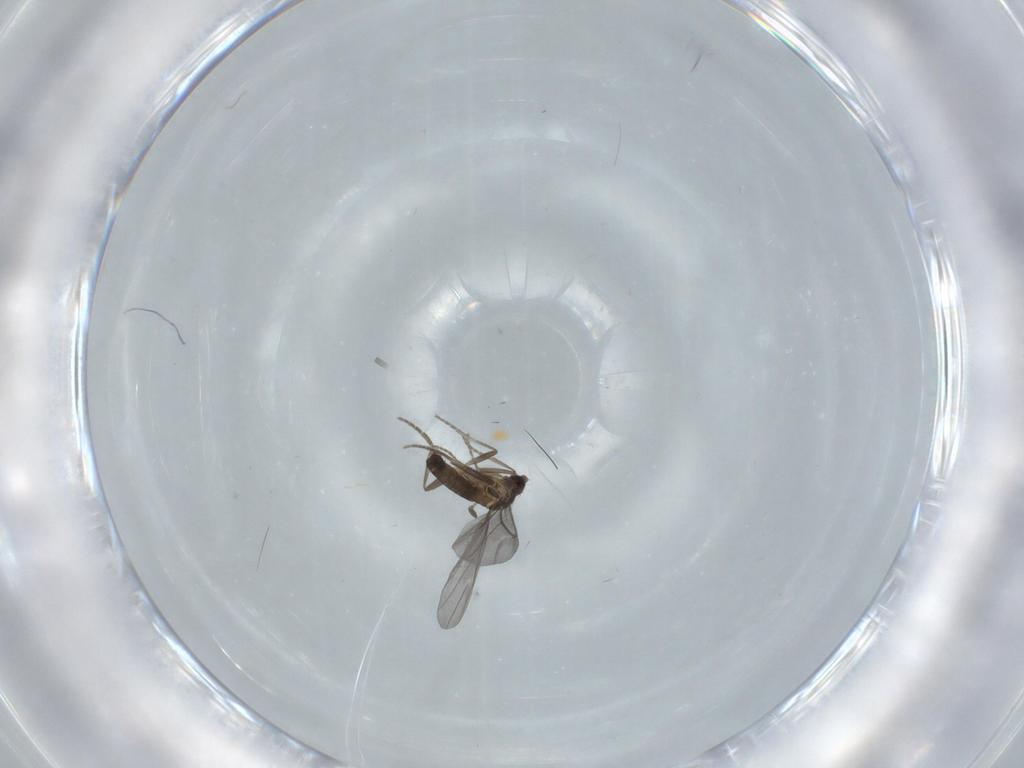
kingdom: Animalia
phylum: Arthropoda
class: Insecta
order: Diptera
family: Phoridae
